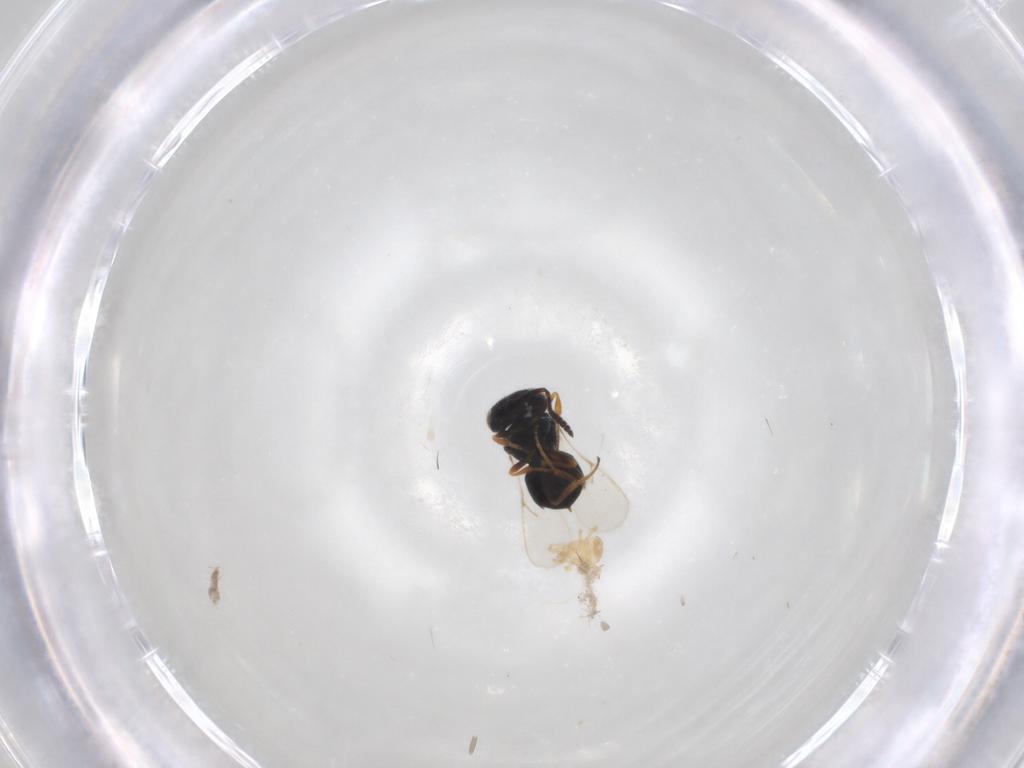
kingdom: Animalia
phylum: Arthropoda
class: Insecta
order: Hymenoptera
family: Scelionidae
